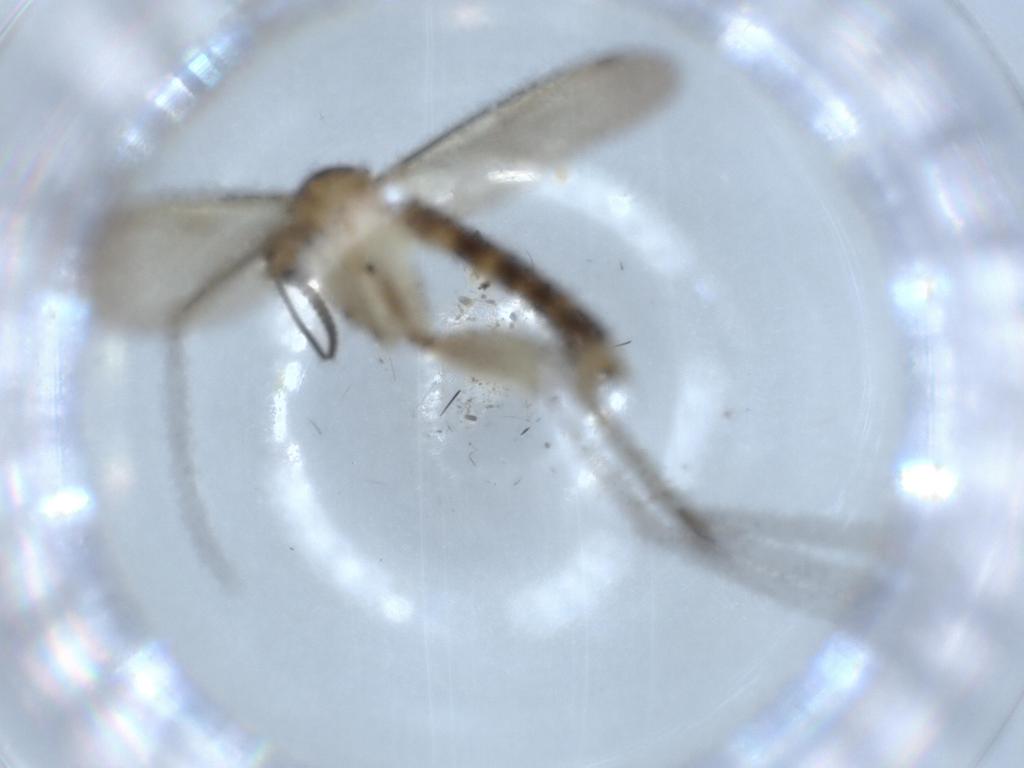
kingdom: Animalia
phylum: Arthropoda
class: Insecta
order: Diptera
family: Mycetophilidae
